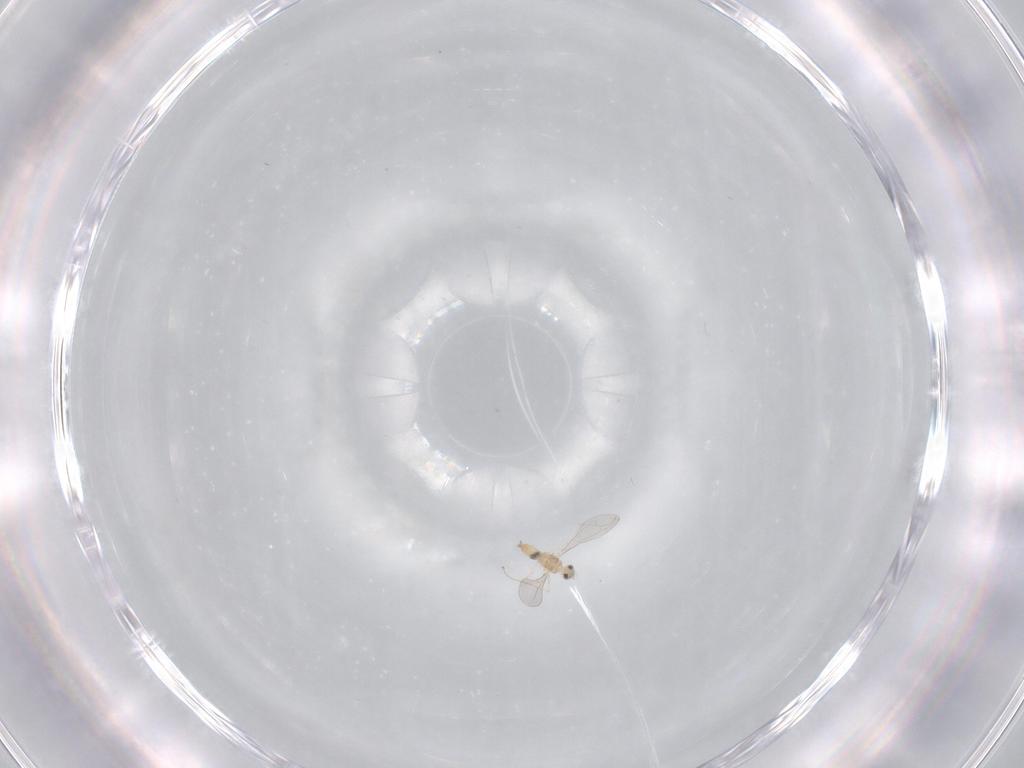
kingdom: Animalia
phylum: Arthropoda
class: Insecta
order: Diptera
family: Limoniidae
